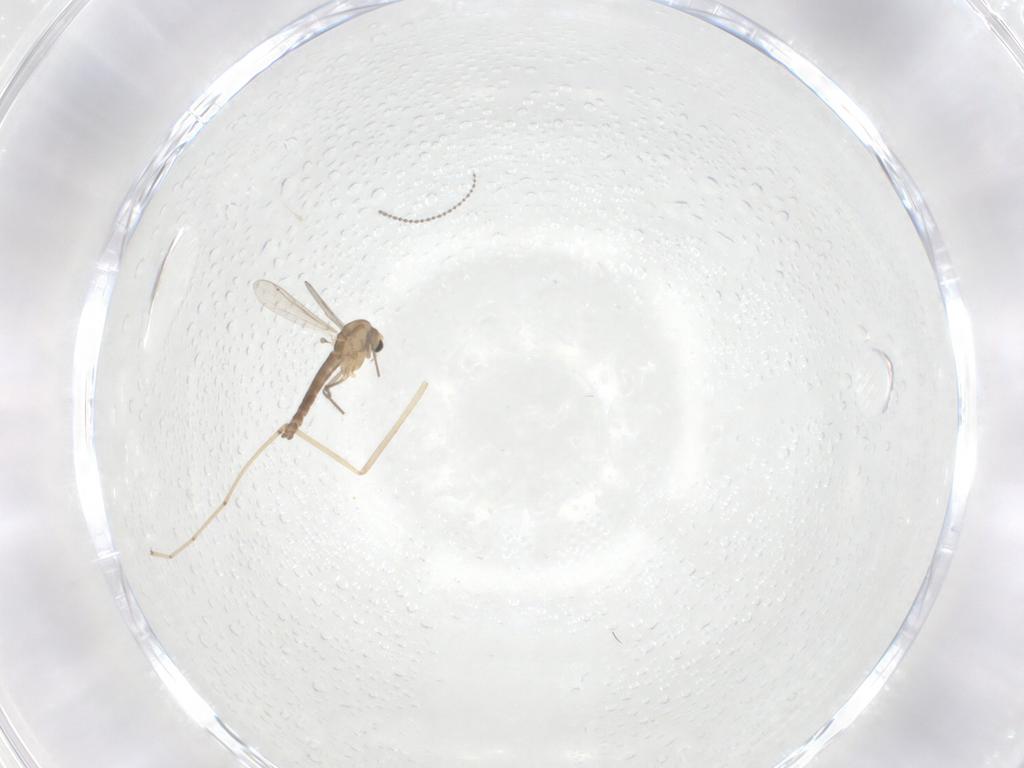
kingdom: Animalia
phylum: Arthropoda
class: Insecta
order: Diptera
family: Chironomidae
